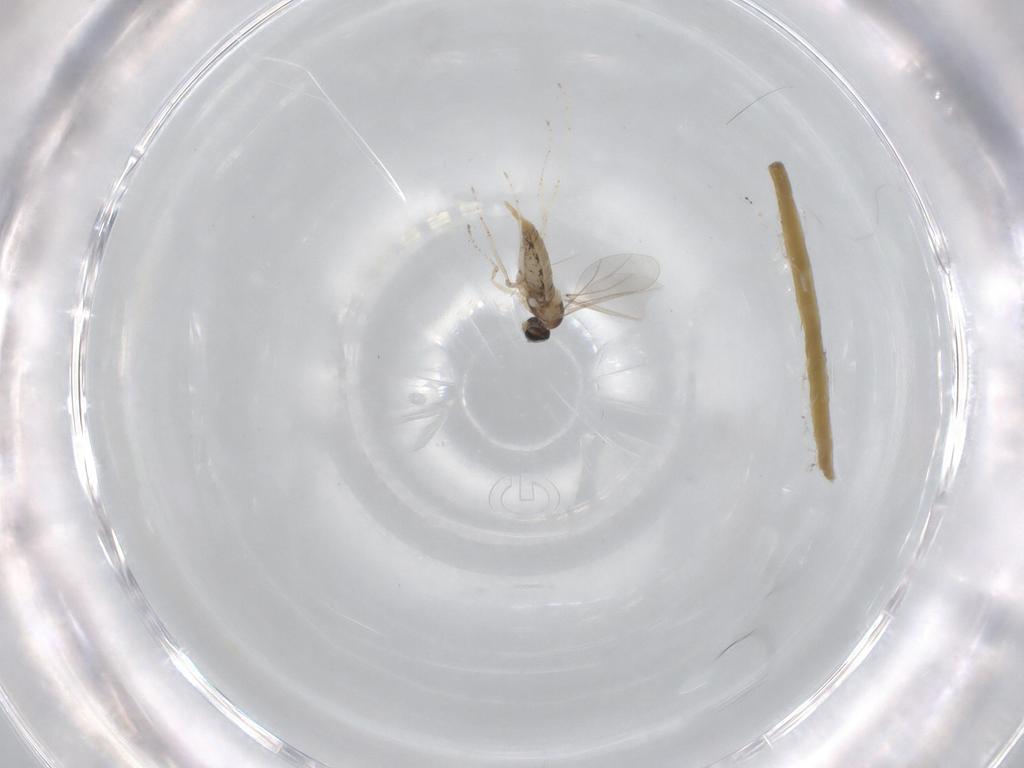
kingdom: Animalia
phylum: Arthropoda
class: Insecta
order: Diptera
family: Cecidomyiidae
